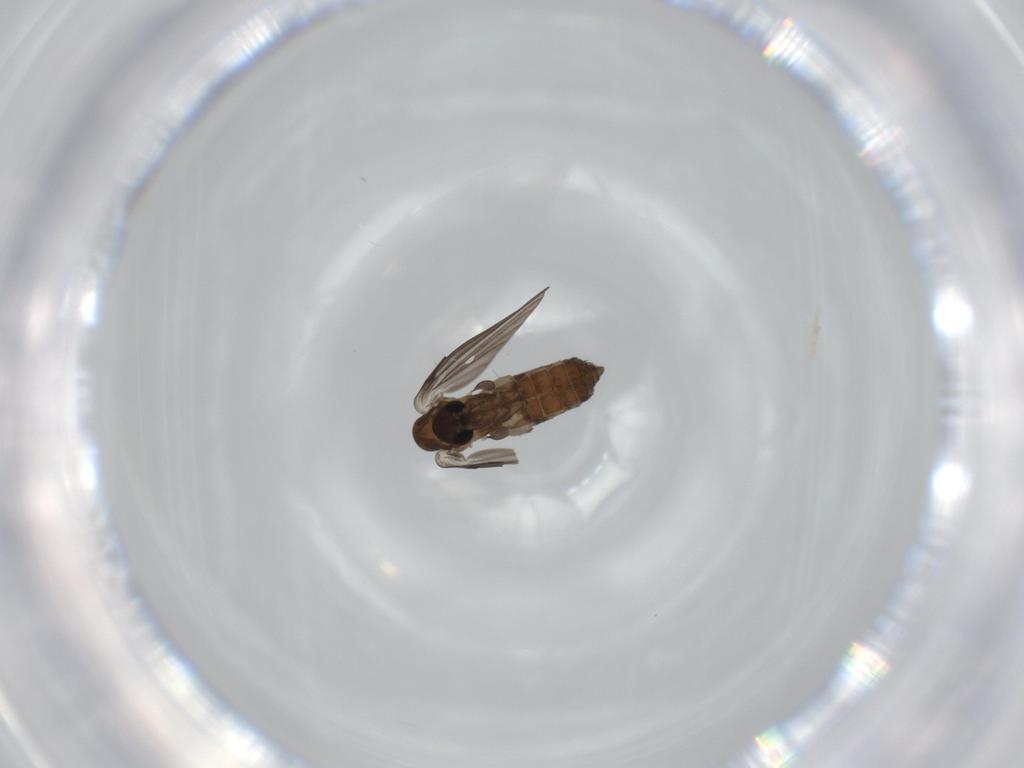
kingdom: Animalia
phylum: Arthropoda
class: Insecta
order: Diptera
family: Psychodidae
